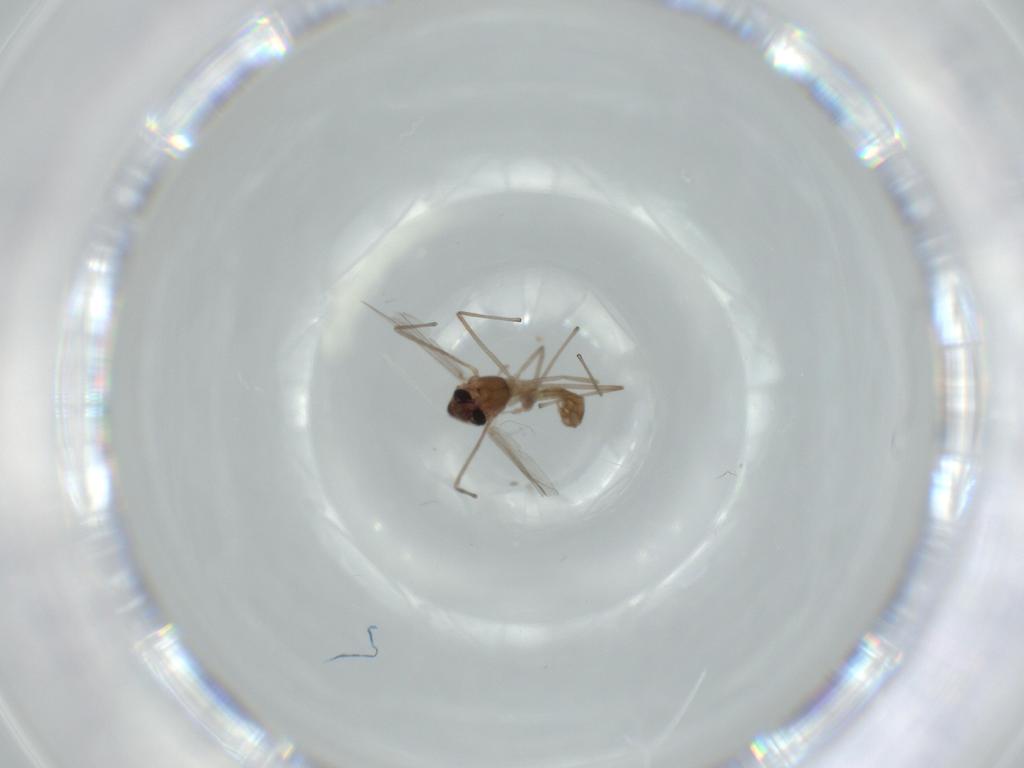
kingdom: Animalia
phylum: Arthropoda
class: Insecta
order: Diptera
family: Chironomidae
